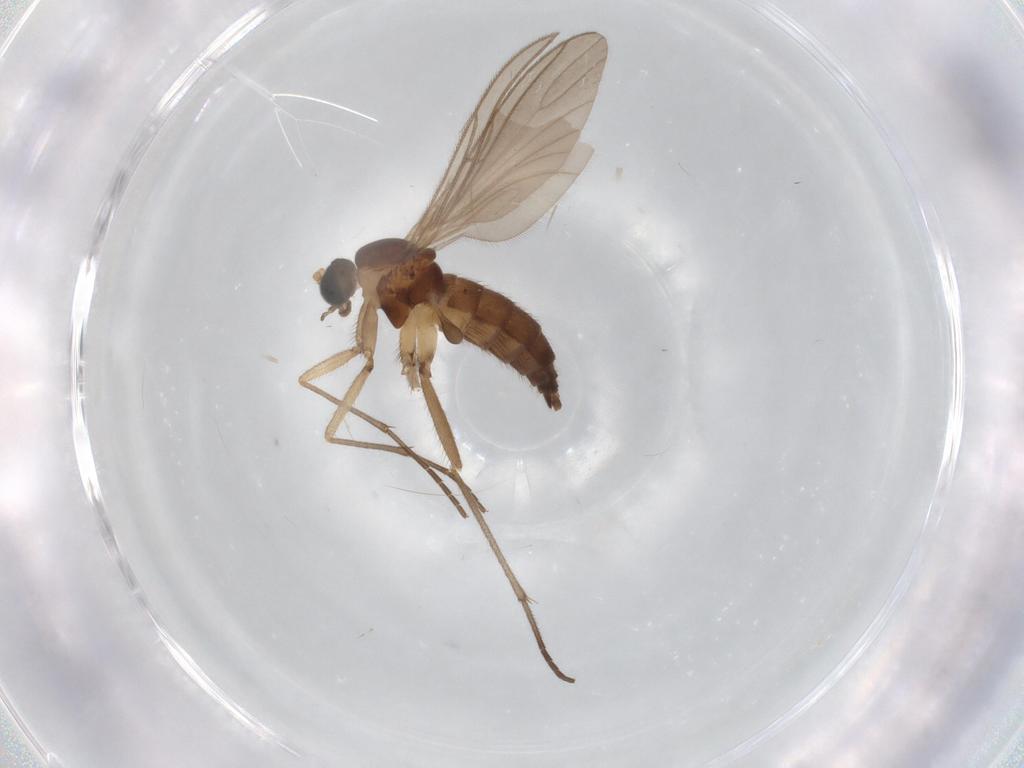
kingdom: Animalia
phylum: Arthropoda
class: Insecta
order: Diptera
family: Sciaridae
